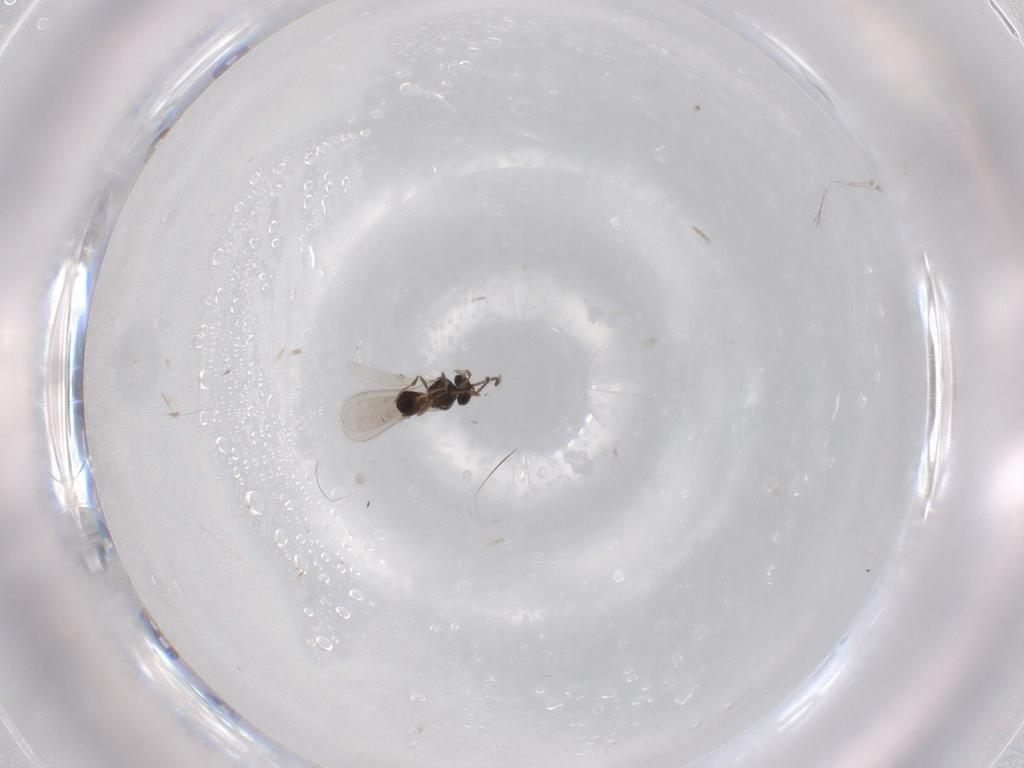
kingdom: Animalia
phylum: Arthropoda
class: Insecta
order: Hymenoptera
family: Scelionidae
